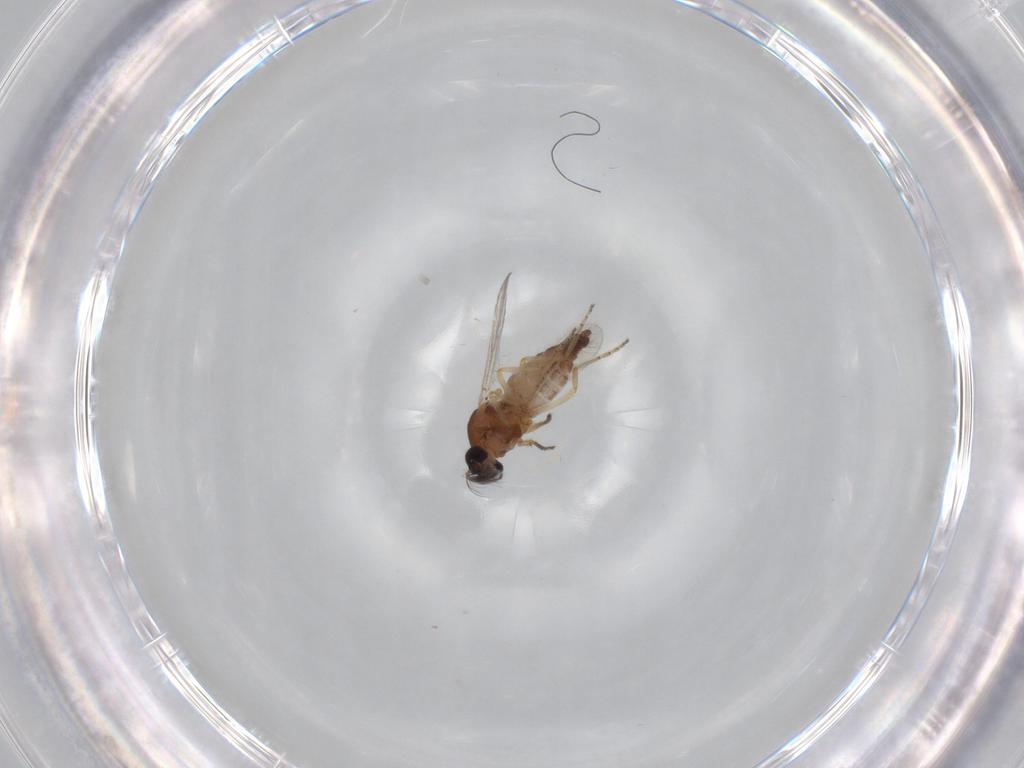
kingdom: Animalia
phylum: Arthropoda
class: Insecta
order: Diptera
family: Ceratopogonidae
